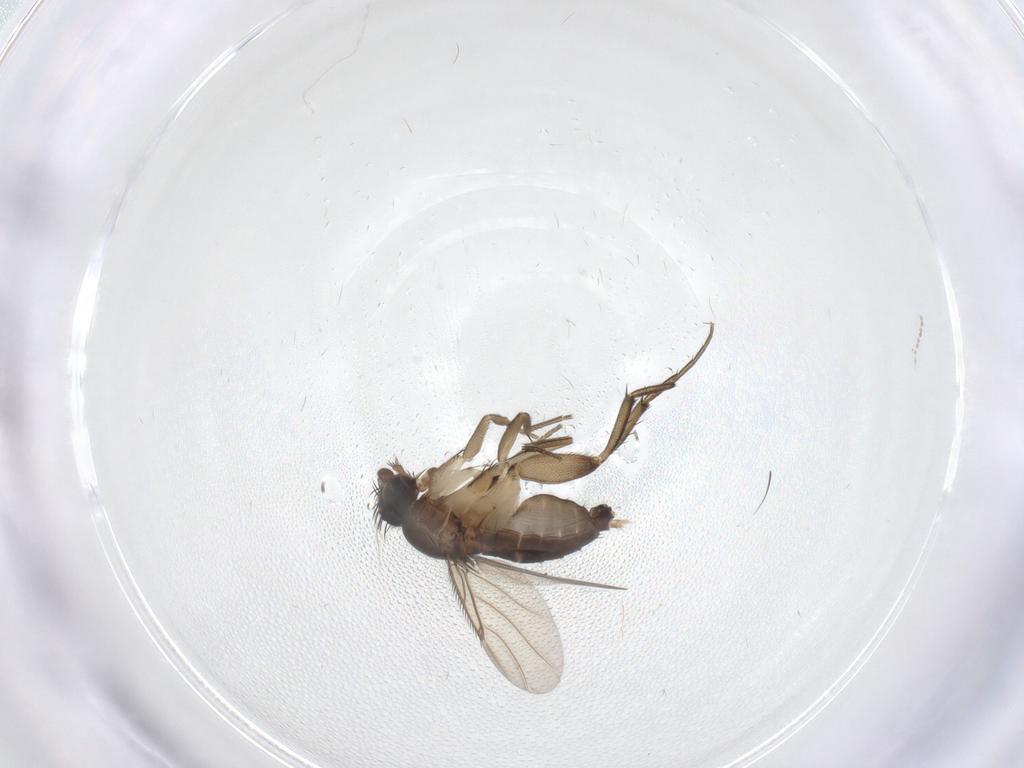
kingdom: Animalia
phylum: Arthropoda
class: Insecta
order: Diptera
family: Phoridae
